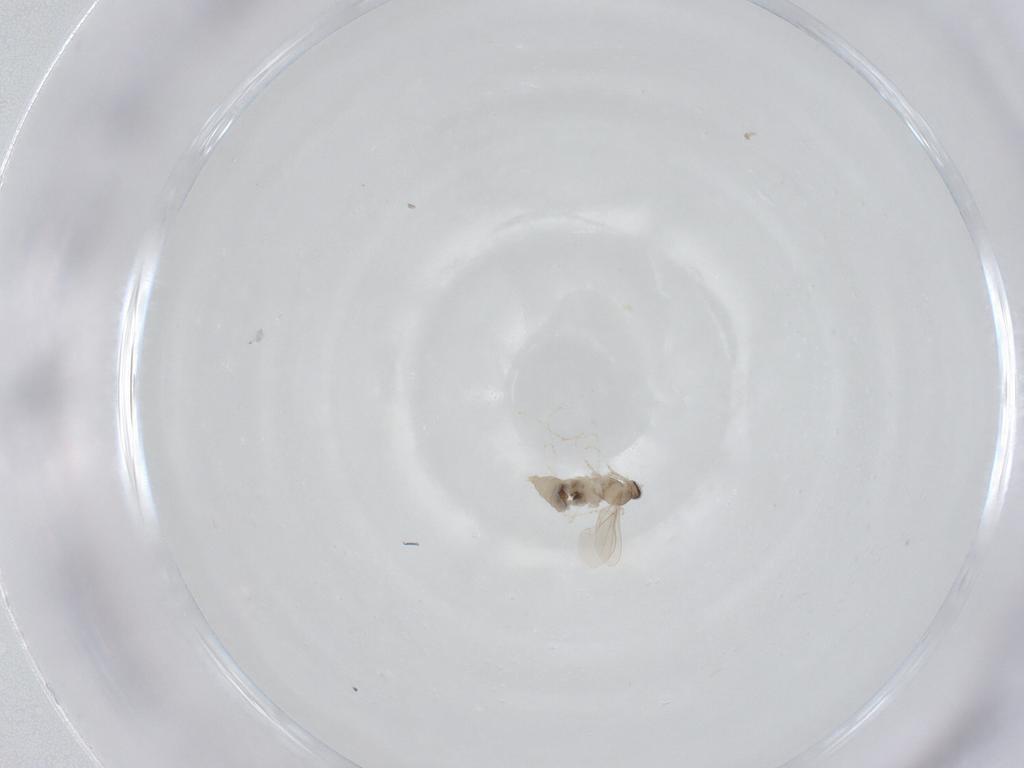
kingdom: Animalia
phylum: Arthropoda
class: Insecta
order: Diptera
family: Cecidomyiidae
